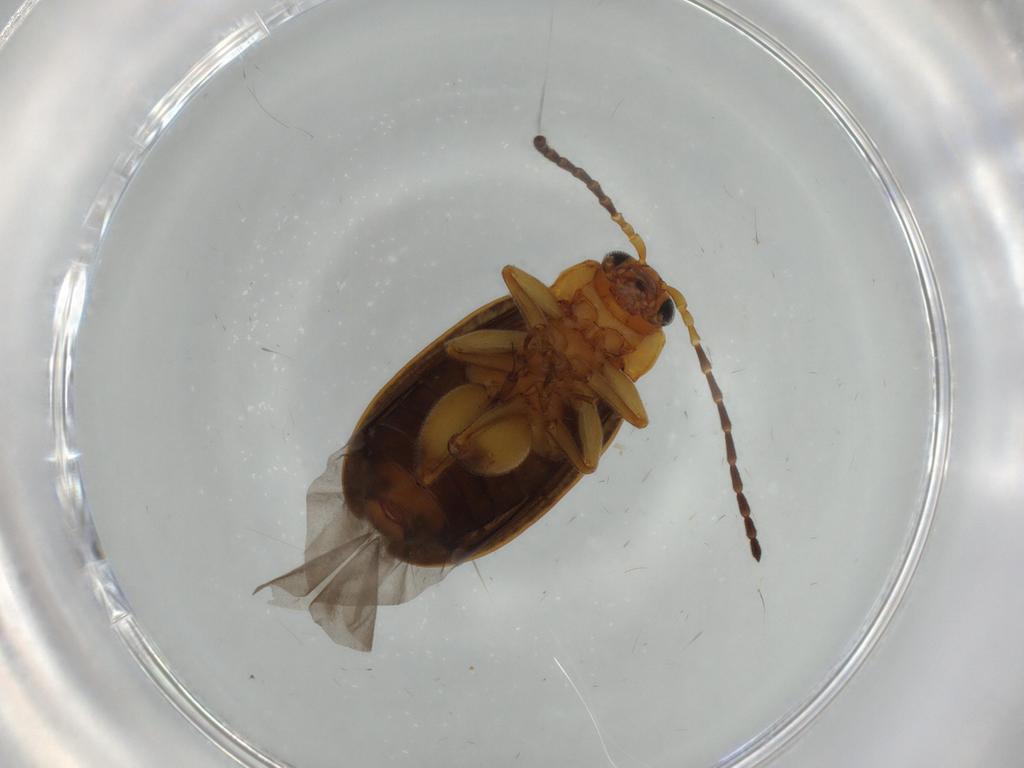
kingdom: Animalia
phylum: Arthropoda
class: Insecta
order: Coleoptera
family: Chrysomelidae
